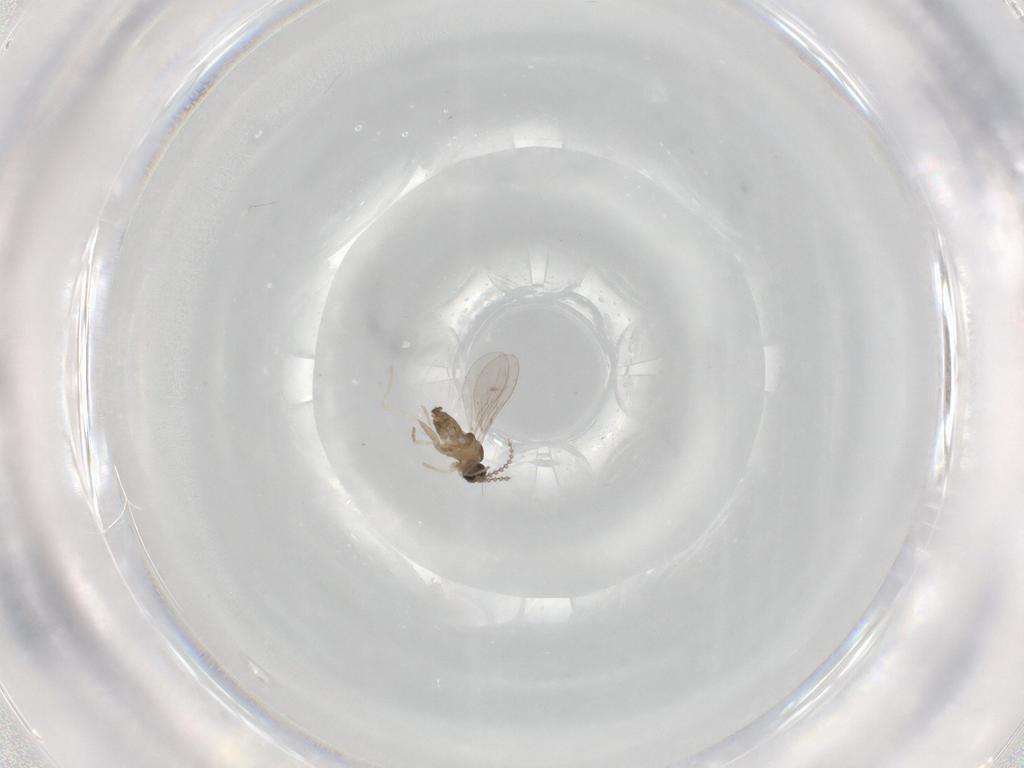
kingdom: Animalia
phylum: Arthropoda
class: Insecta
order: Diptera
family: Cecidomyiidae
